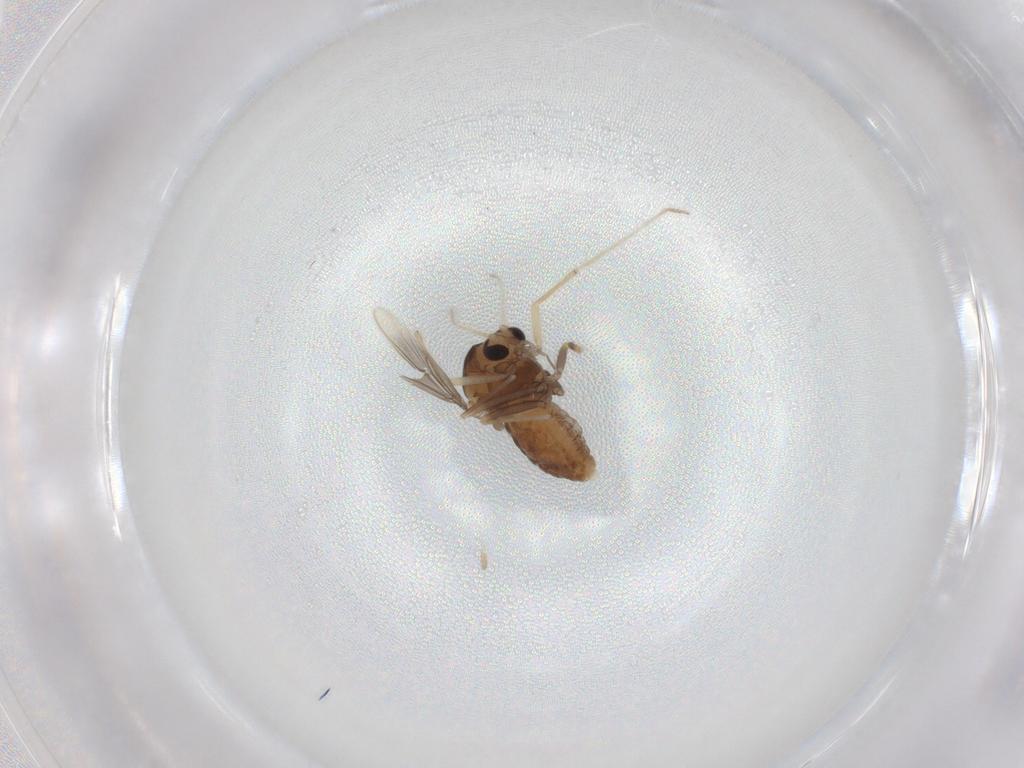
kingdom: Animalia
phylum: Arthropoda
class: Insecta
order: Diptera
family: Chironomidae
